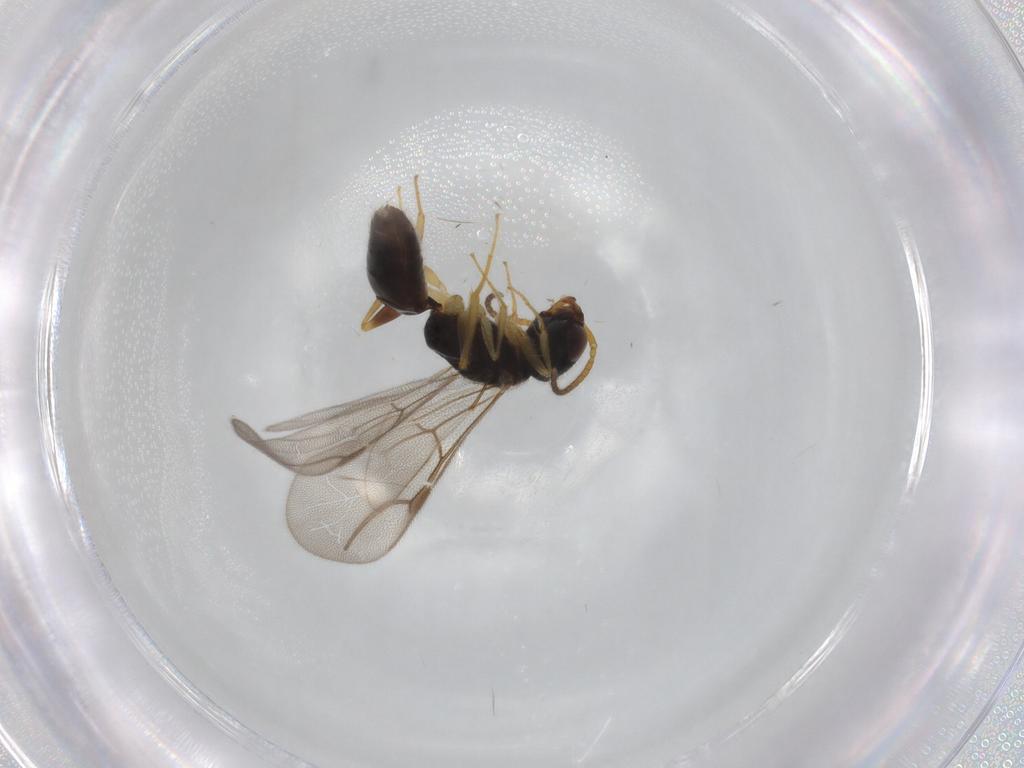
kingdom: Animalia
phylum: Arthropoda
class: Insecta
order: Hymenoptera
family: Bethylidae
